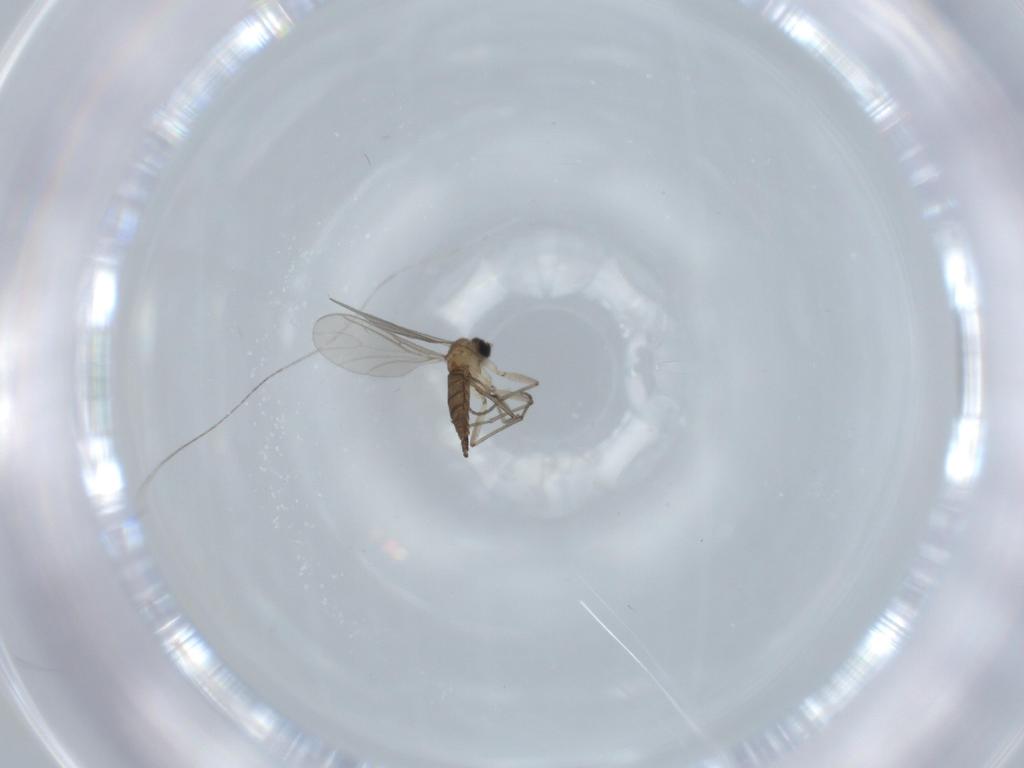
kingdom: Animalia
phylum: Arthropoda
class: Insecta
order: Diptera
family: Sciaridae
